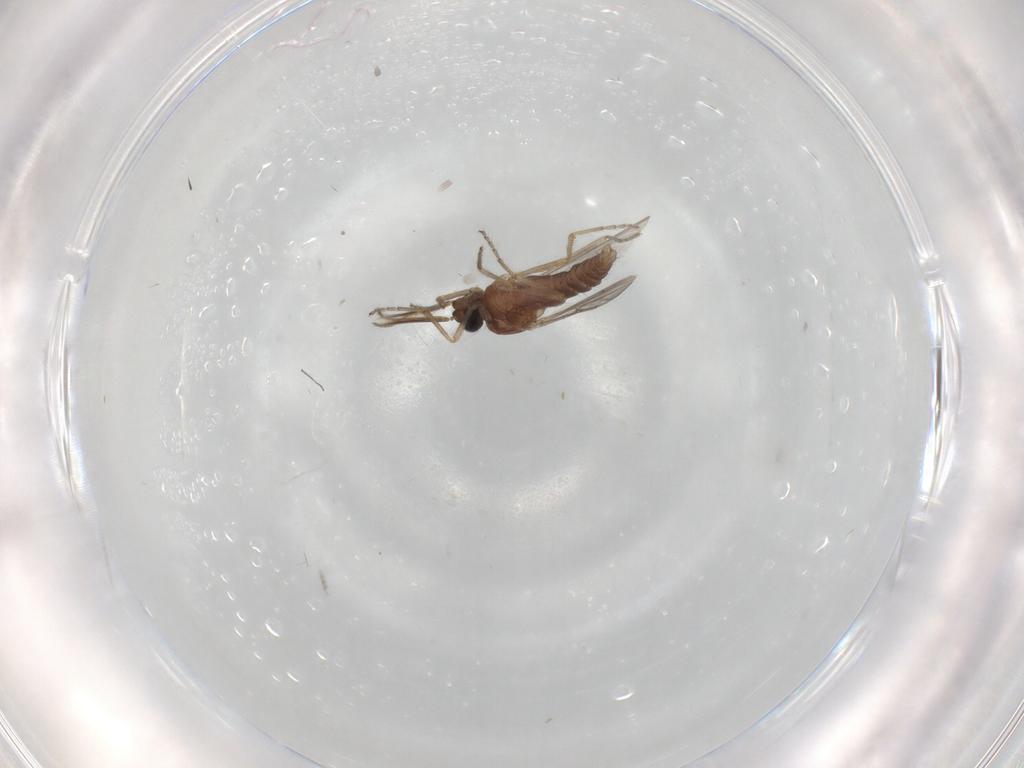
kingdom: Animalia
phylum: Arthropoda
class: Insecta
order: Diptera
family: Ceratopogonidae
